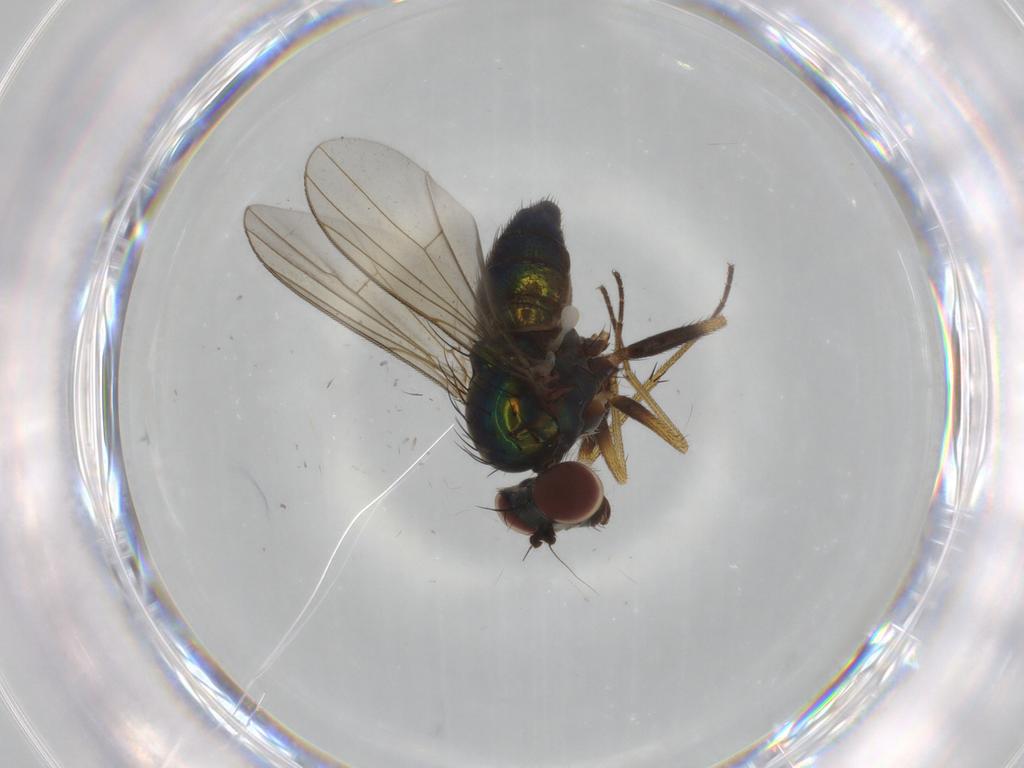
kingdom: Animalia
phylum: Arthropoda
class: Insecta
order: Diptera
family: Dolichopodidae
